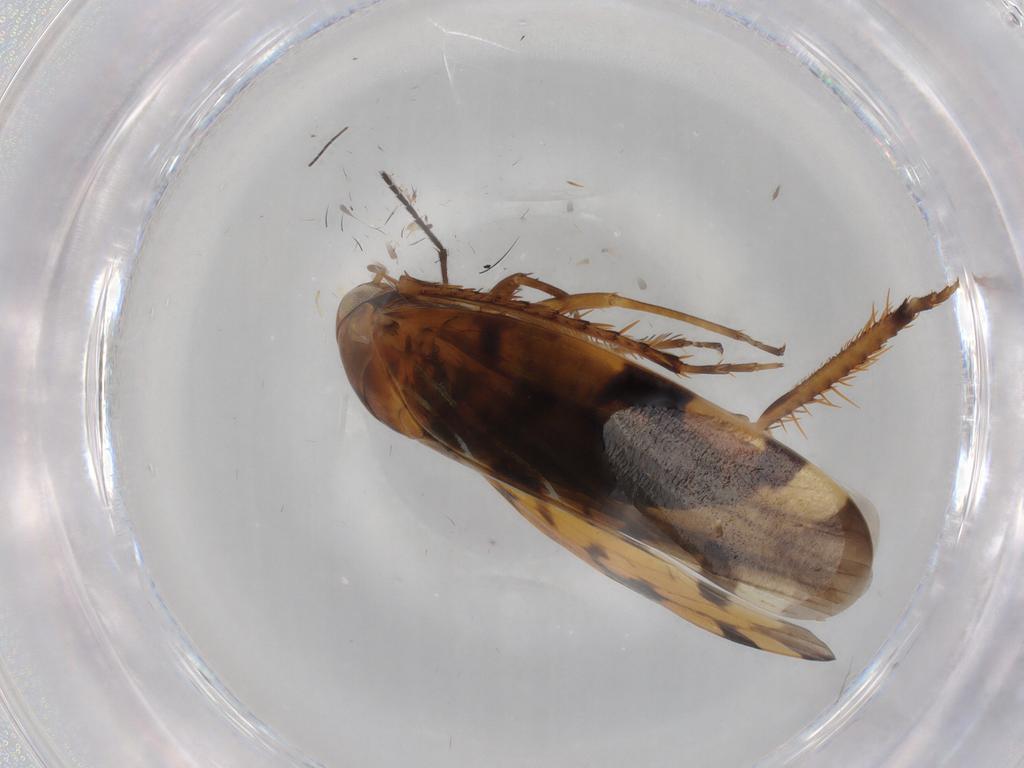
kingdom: Animalia
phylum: Arthropoda
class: Insecta
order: Hemiptera
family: Cicadellidae
